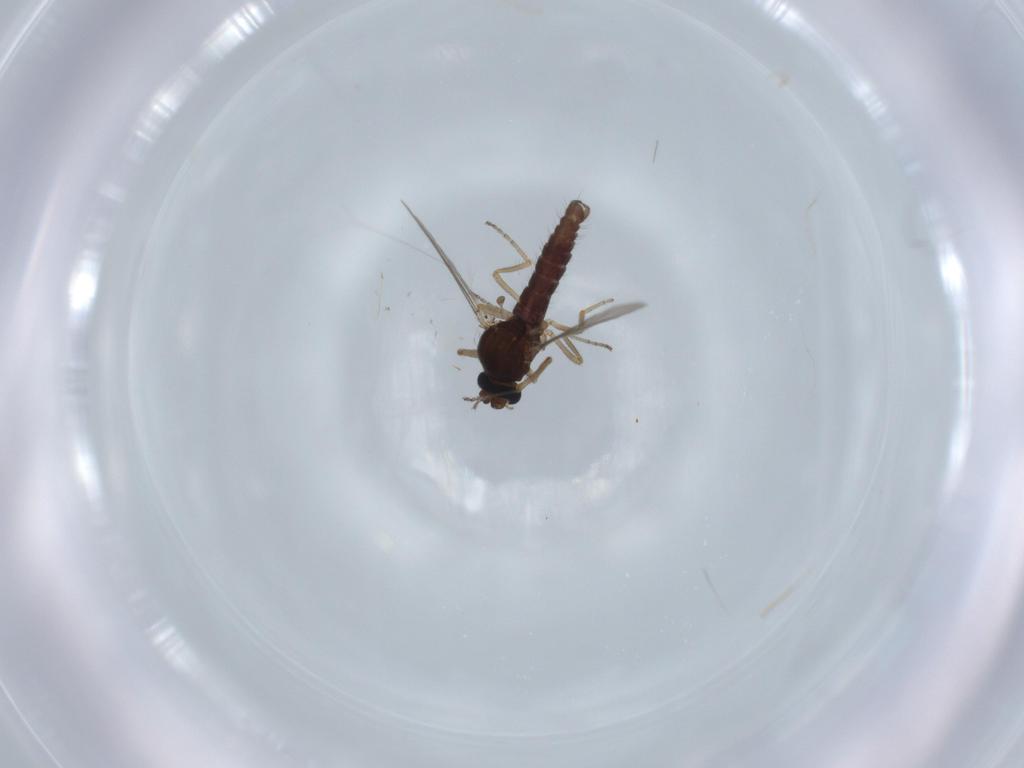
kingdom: Animalia
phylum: Arthropoda
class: Insecta
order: Diptera
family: Ceratopogonidae
